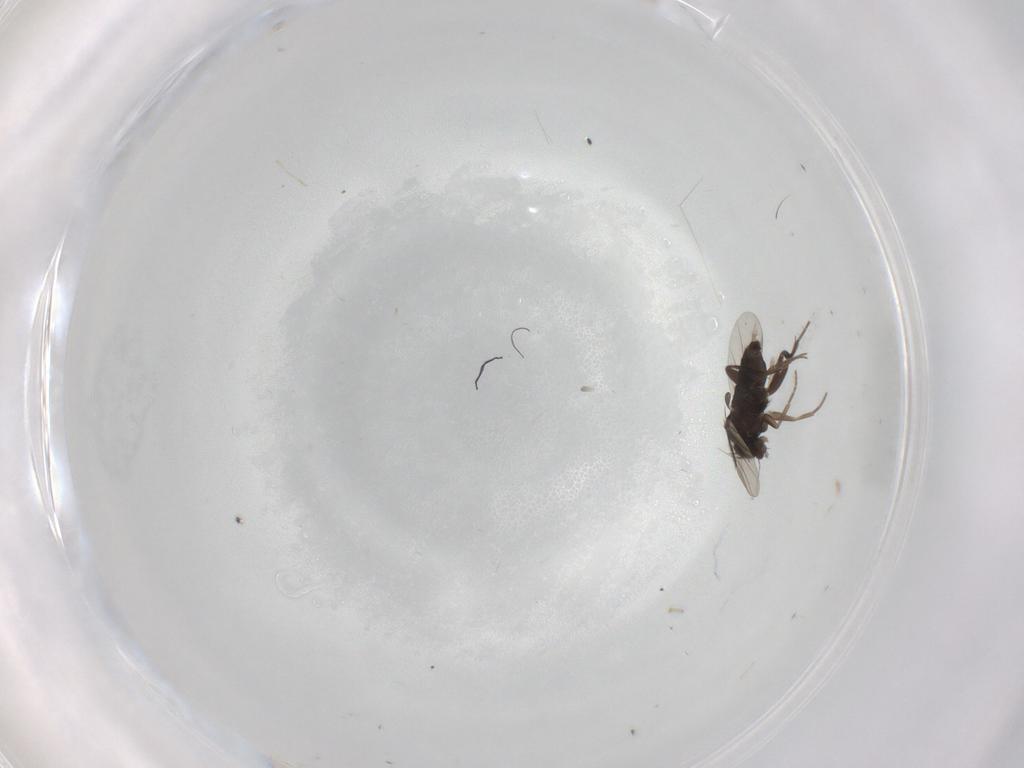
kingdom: Animalia
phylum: Arthropoda
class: Insecta
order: Diptera
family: Phoridae
